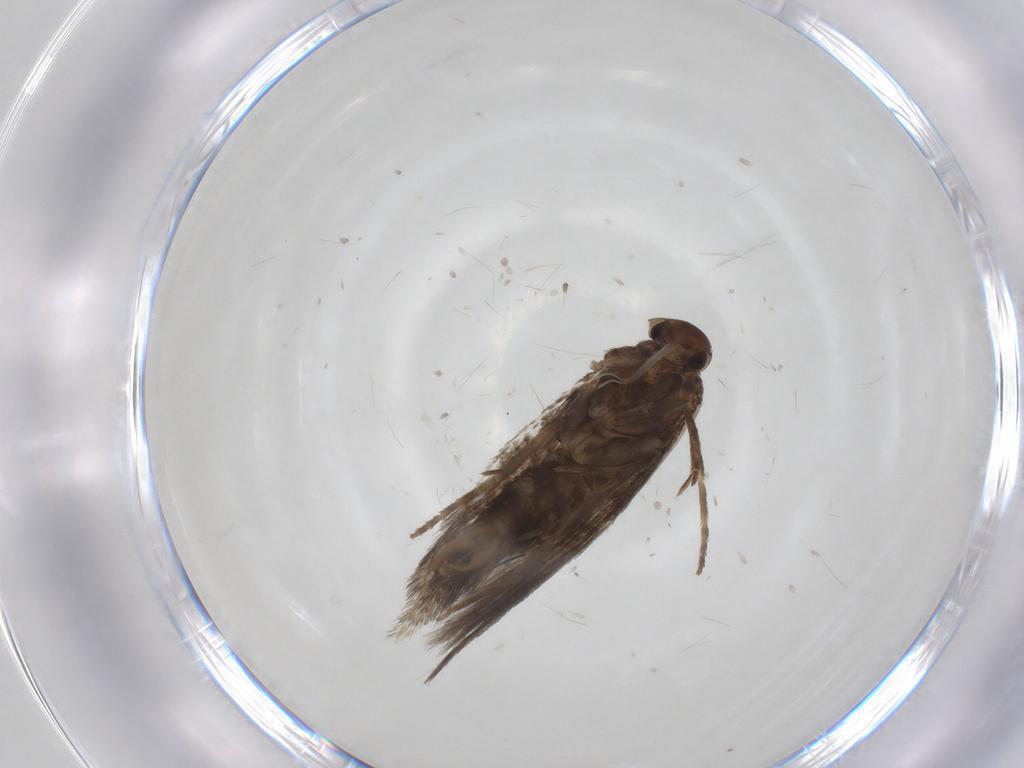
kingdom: Animalia
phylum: Arthropoda
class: Insecta
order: Lepidoptera
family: Elachistidae
